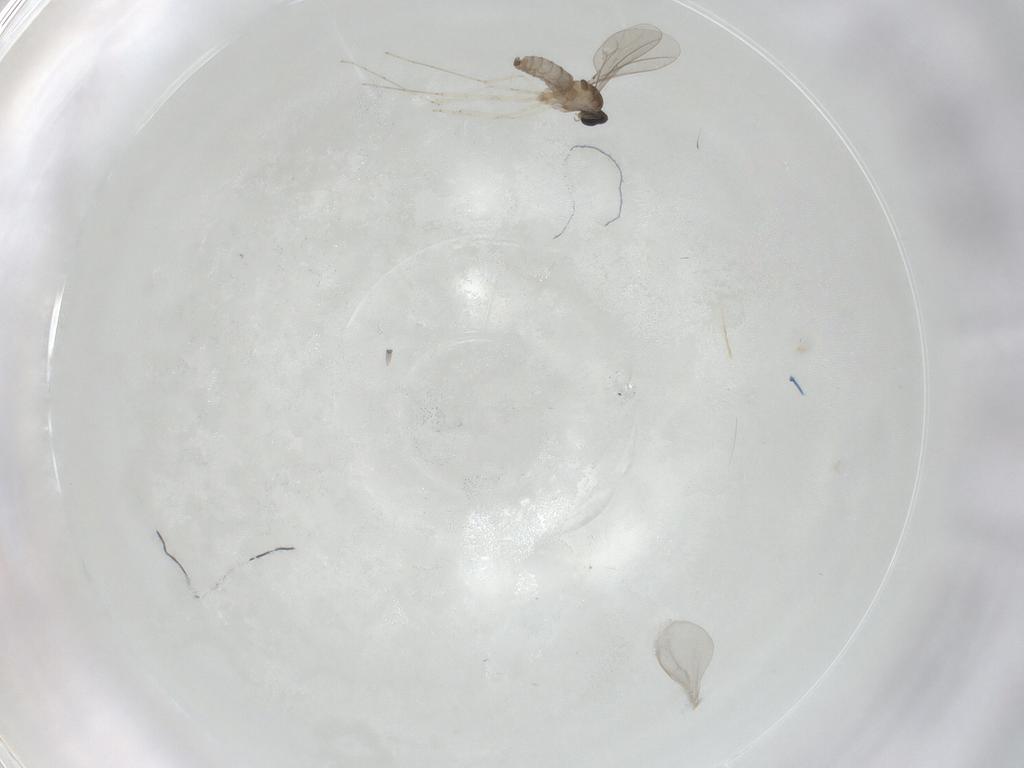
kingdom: Animalia
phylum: Arthropoda
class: Insecta
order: Diptera
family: Cecidomyiidae
